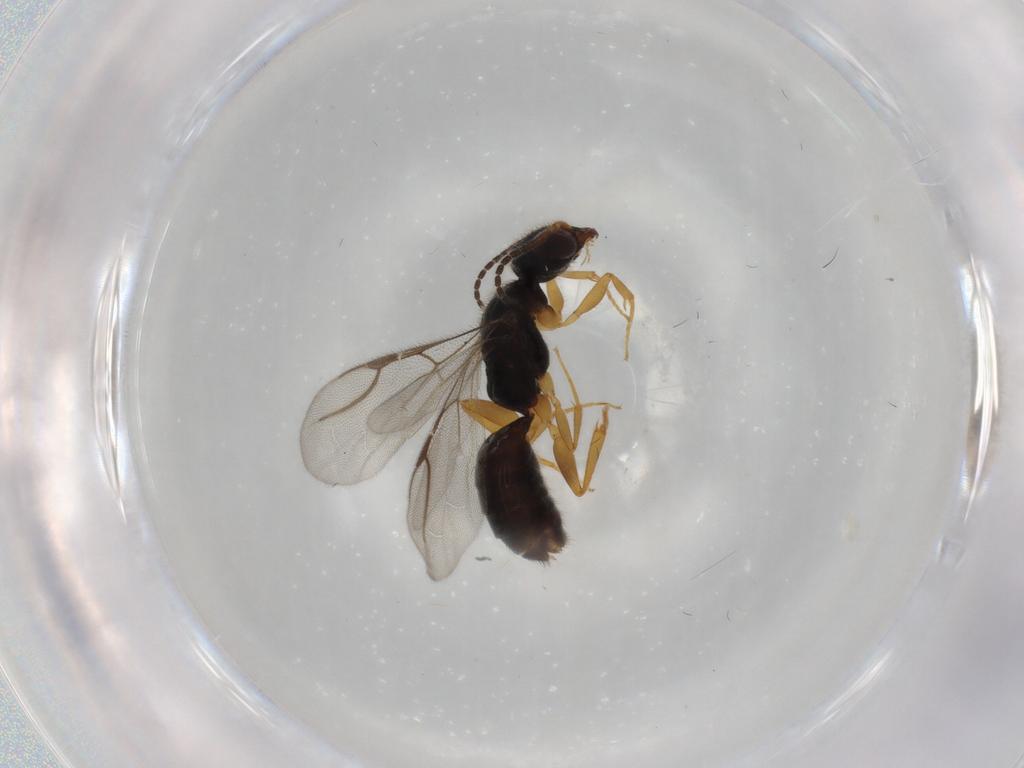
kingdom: Animalia
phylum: Arthropoda
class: Insecta
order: Hymenoptera
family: Bethylidae
